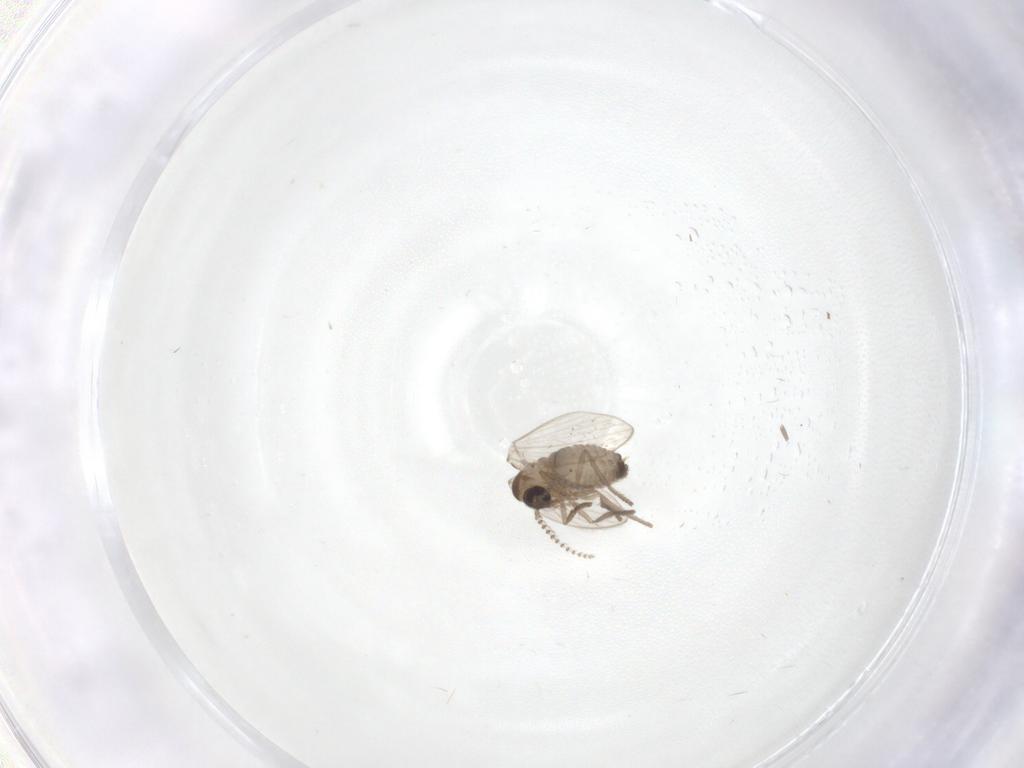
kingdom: Animalia
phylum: Arthropoda
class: Insecta
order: Diptera
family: Psychodidae
